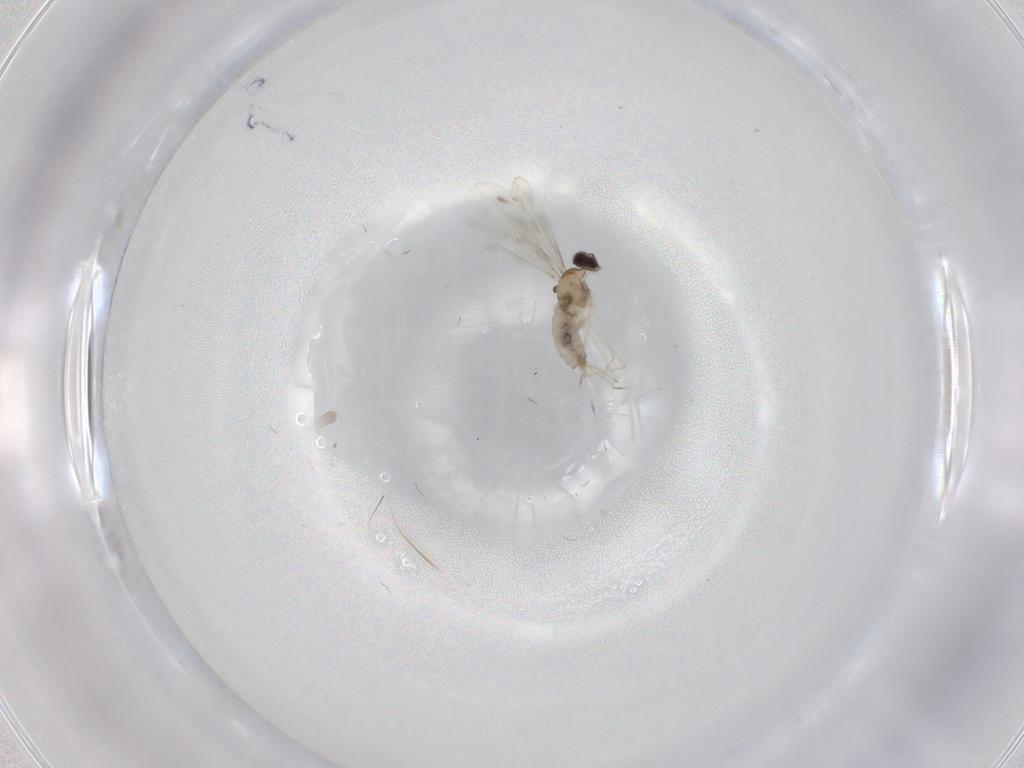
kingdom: Animalia
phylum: Arthropoda
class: Insecta
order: Diptera
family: Cecidomyiidae
